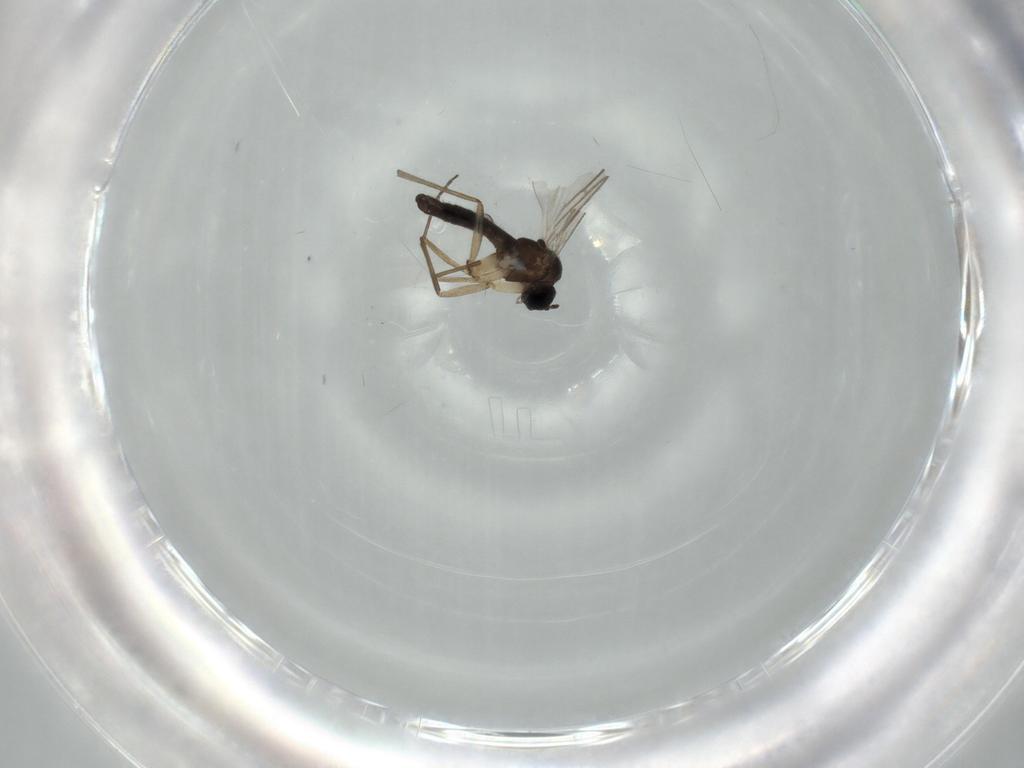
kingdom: Animalia
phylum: Arthropoda
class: Insecta
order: Diptera
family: Sciaridae
